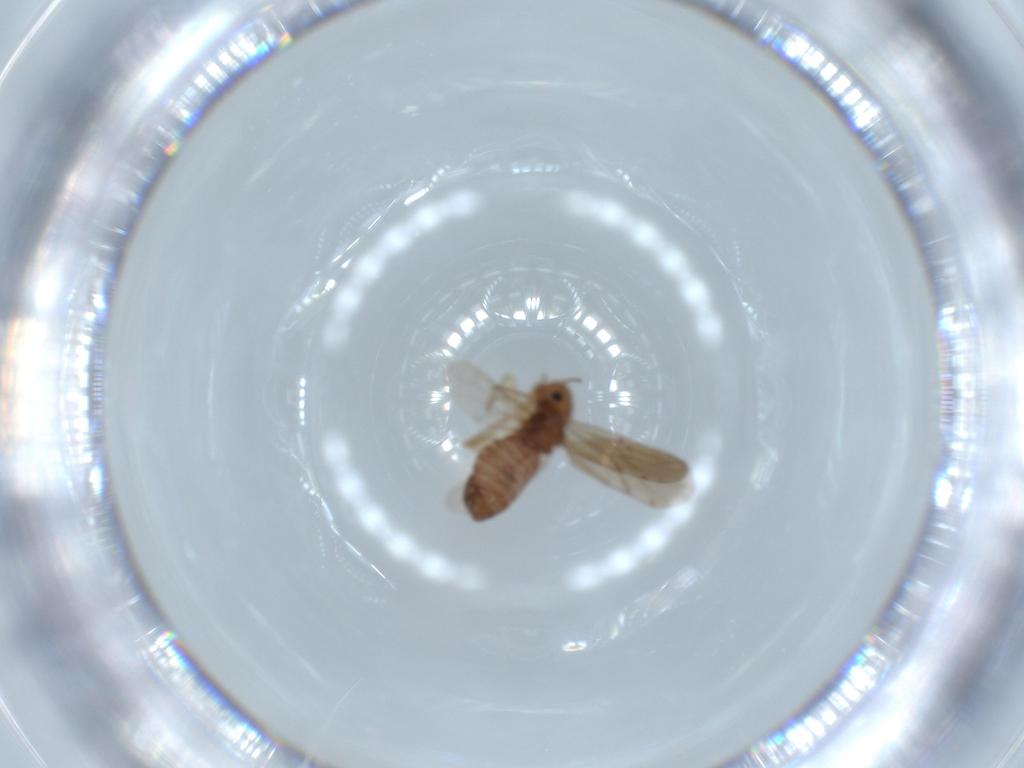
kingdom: Animalia
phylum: Arthropoda
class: Insecta
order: Psocodea
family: Ectopsocidae
